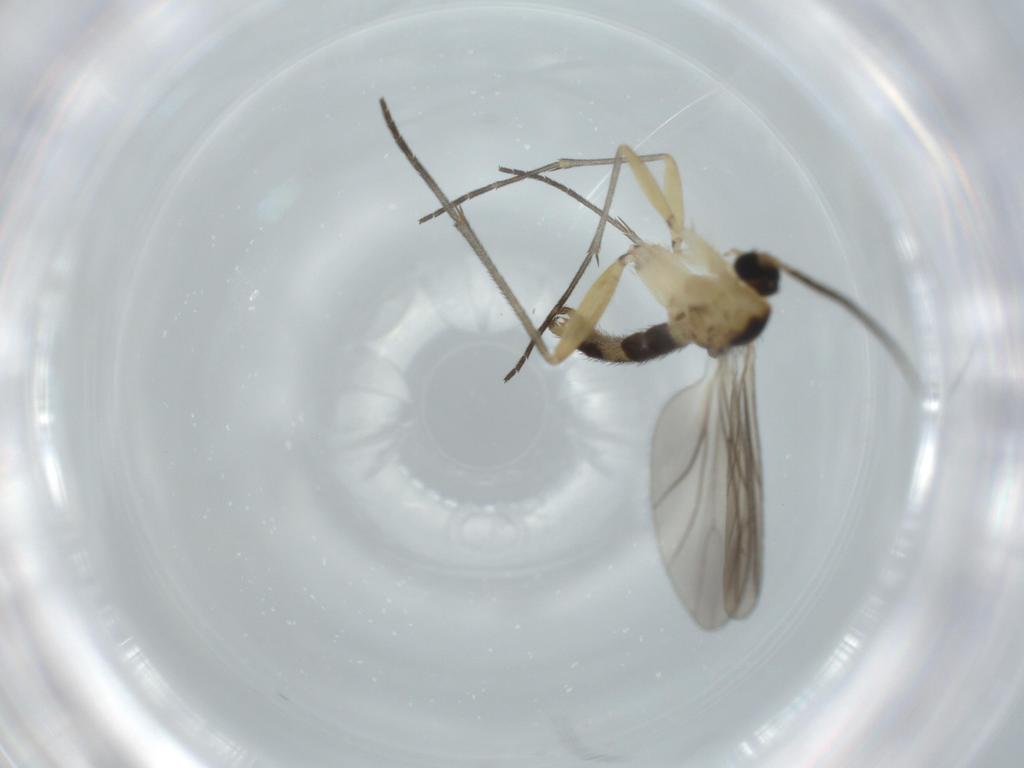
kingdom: Animalia
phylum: Arthropoda
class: Insecta
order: Diptera
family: Sciaridae
